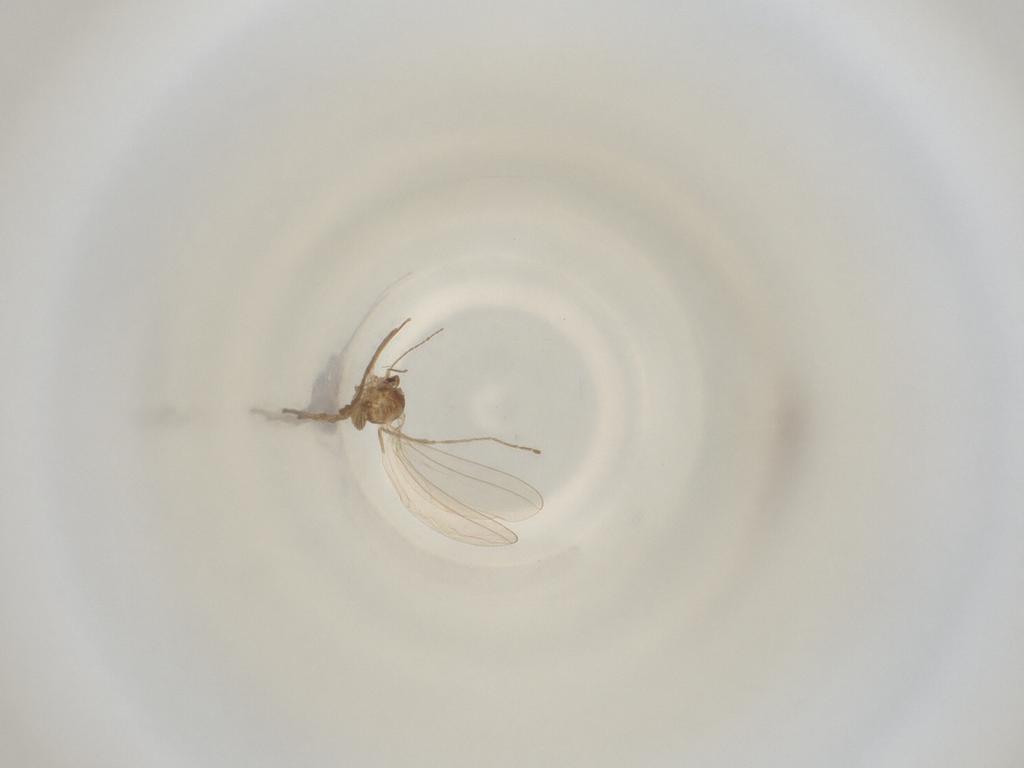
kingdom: Animalia
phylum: Arthropoda
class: Insecta
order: Diptera
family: Cecidomyiidae
